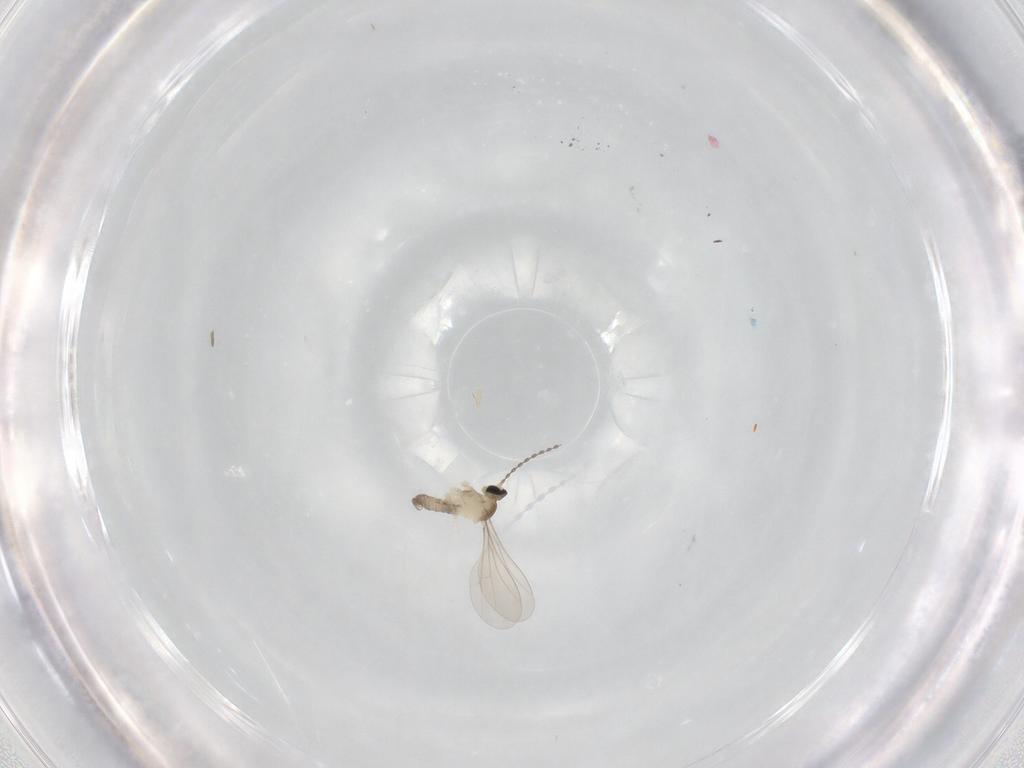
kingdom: Animalia
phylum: Arthropoda
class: Insecta
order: Diptera
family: Cecidomyiidae
